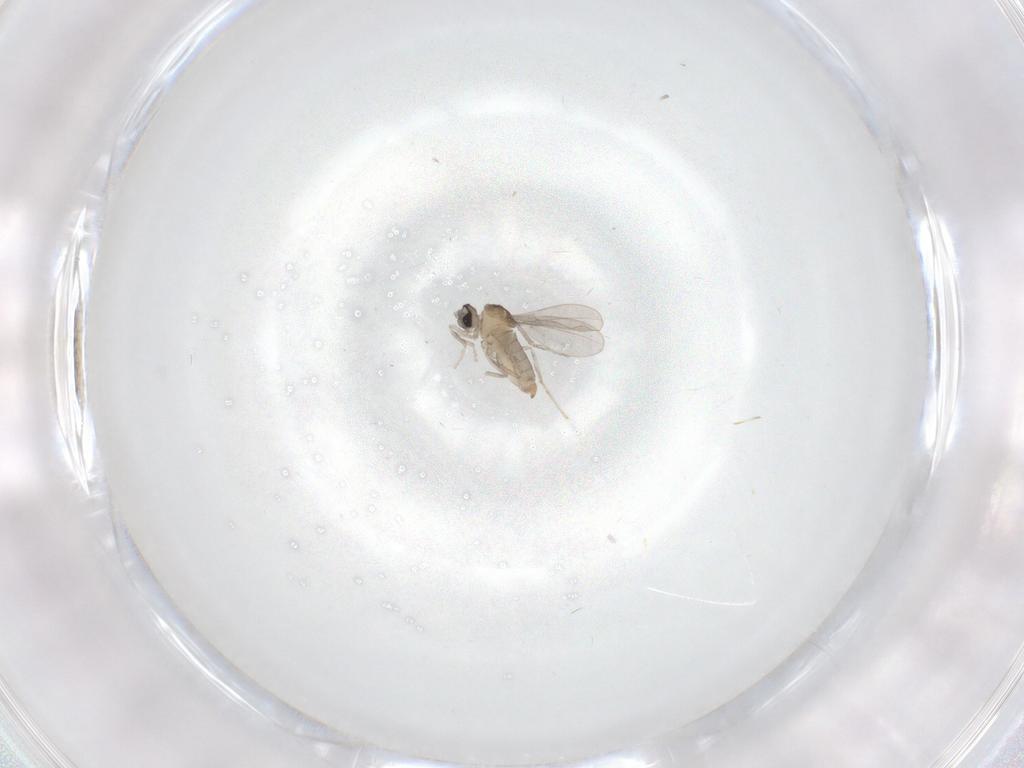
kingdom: Animalia
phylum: Arthropoda
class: Insecta
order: Diptera
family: Cecidomyiidae
